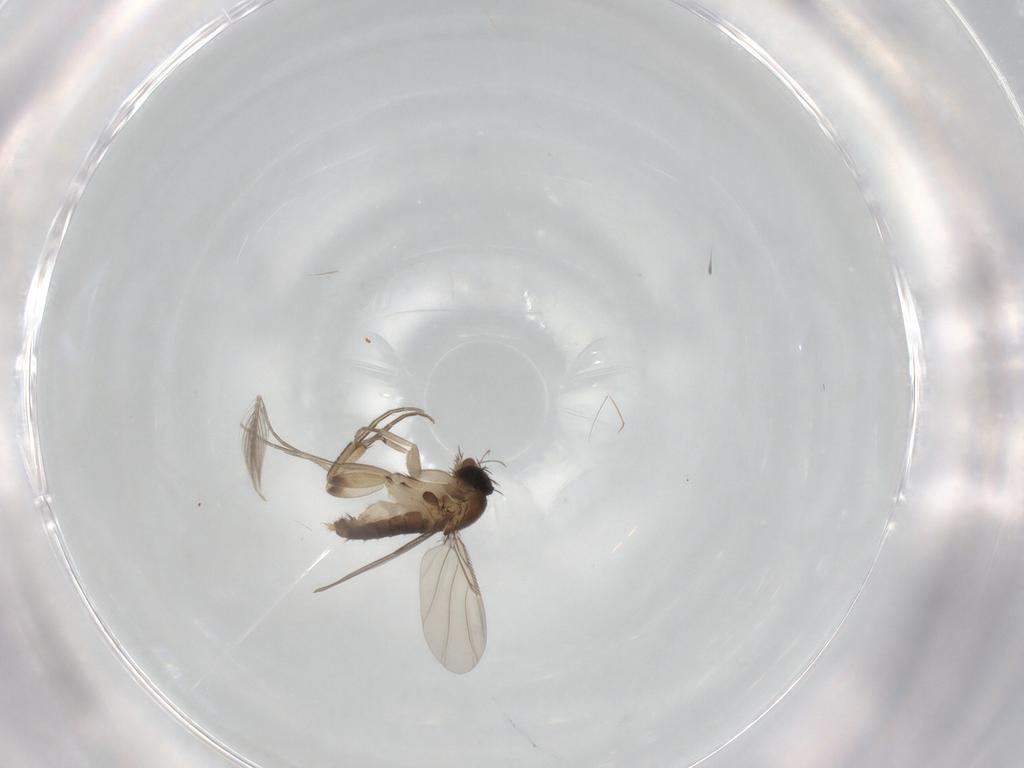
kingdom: Animalia
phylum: Arthropoda
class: Insecta
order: Diptera
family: Phoridae
